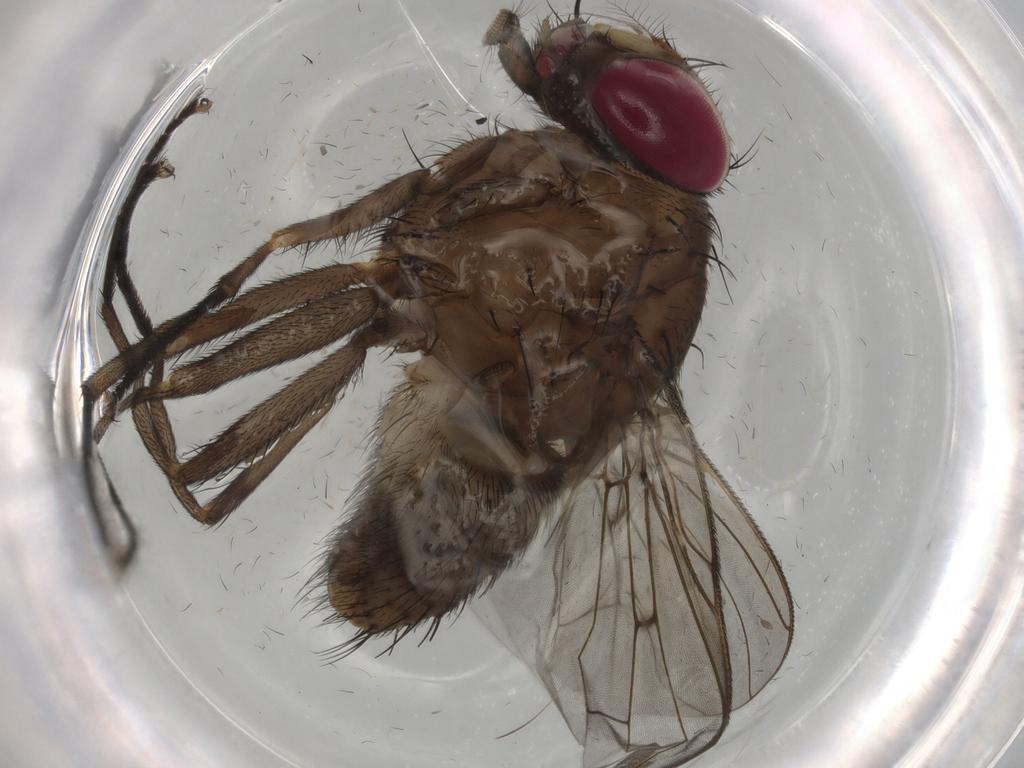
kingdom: Animalia
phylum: Arthropoda
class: Insecta
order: Diptera
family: Muscidae
